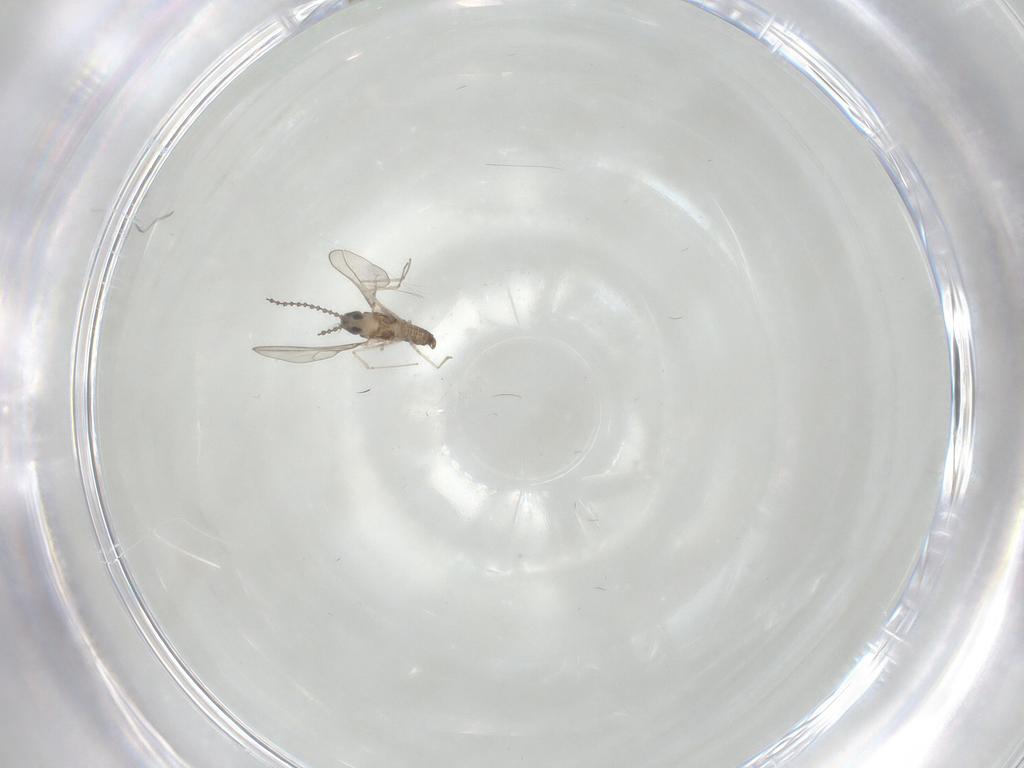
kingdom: Animalia
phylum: Arthropoda
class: Insecta
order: Diptera
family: Cecidomyiidae
